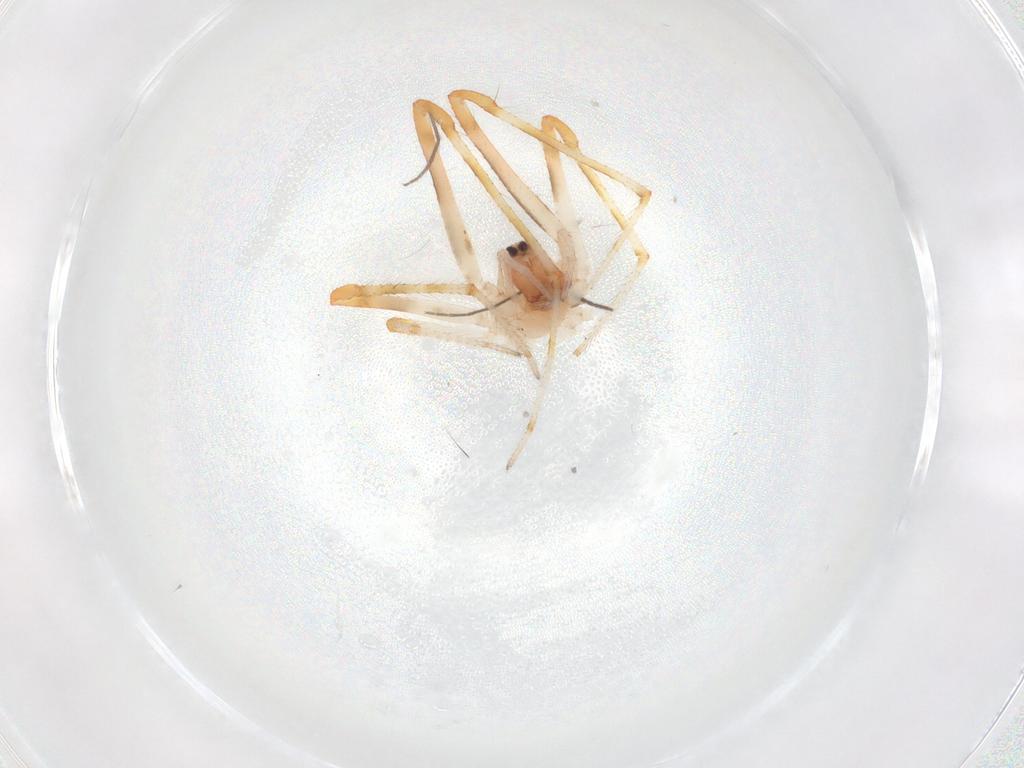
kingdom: Animalia
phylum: Arthropoda
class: Arachnida
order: Araneae
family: Theridiidae
